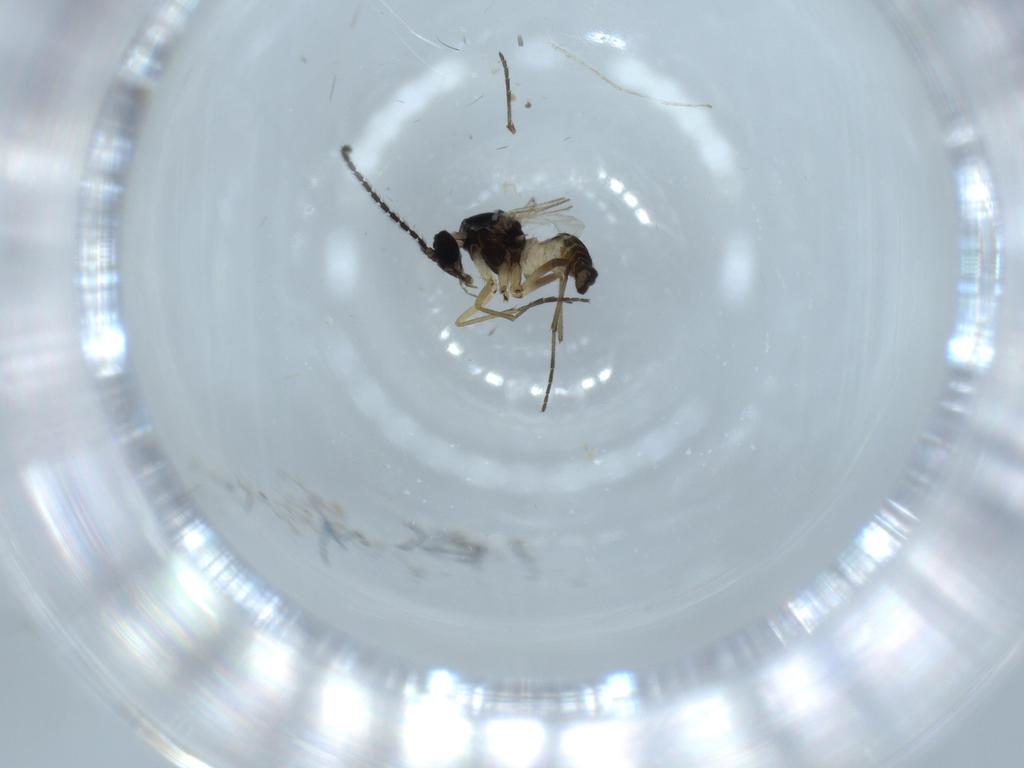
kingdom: Animalia
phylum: Arthropoda
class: Insecta
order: Diptera
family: Sciaridae
